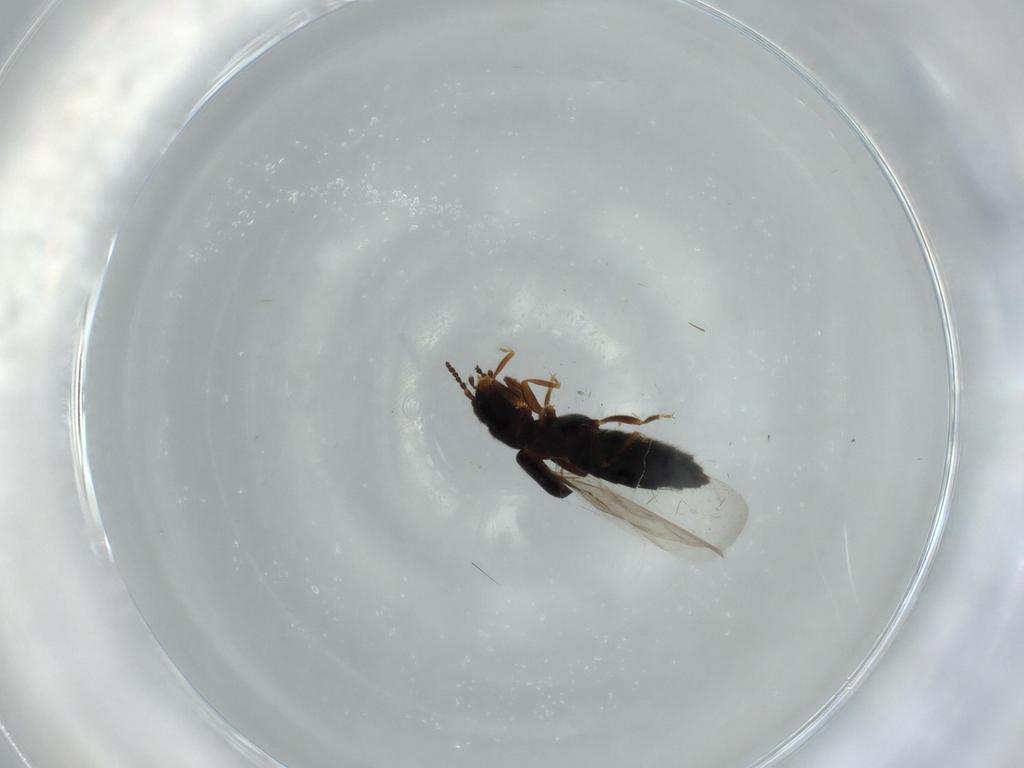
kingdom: Animalia
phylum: Arthropoda
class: Insecta
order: Coleoptera
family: Staphylinidae
